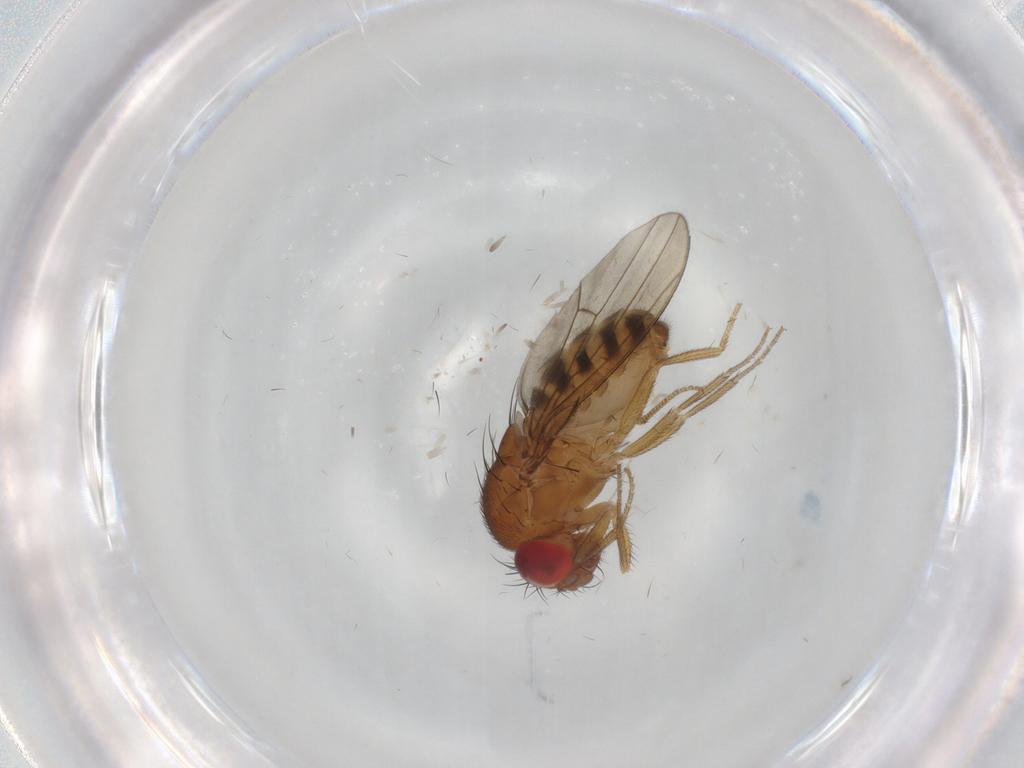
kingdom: Animalia
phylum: Arthropoda
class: Insecta
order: Diptera
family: Drosophilidae
